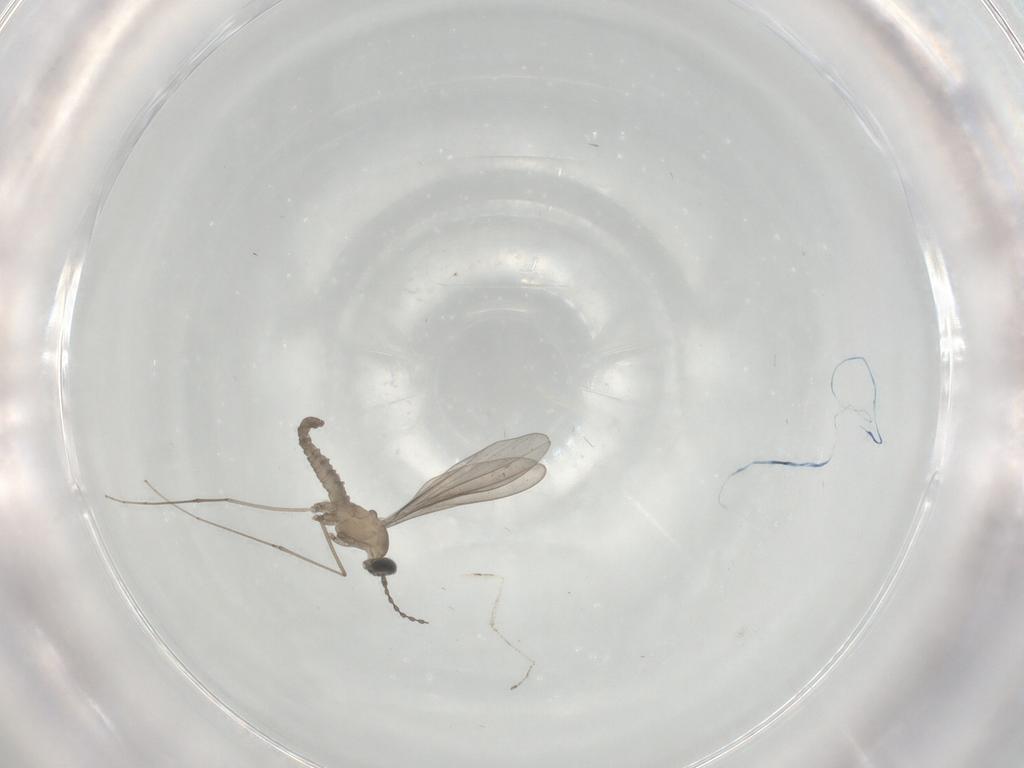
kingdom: Animalia
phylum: Arthropoda
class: Insecta
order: Diptera
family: Cecidomyiidae
